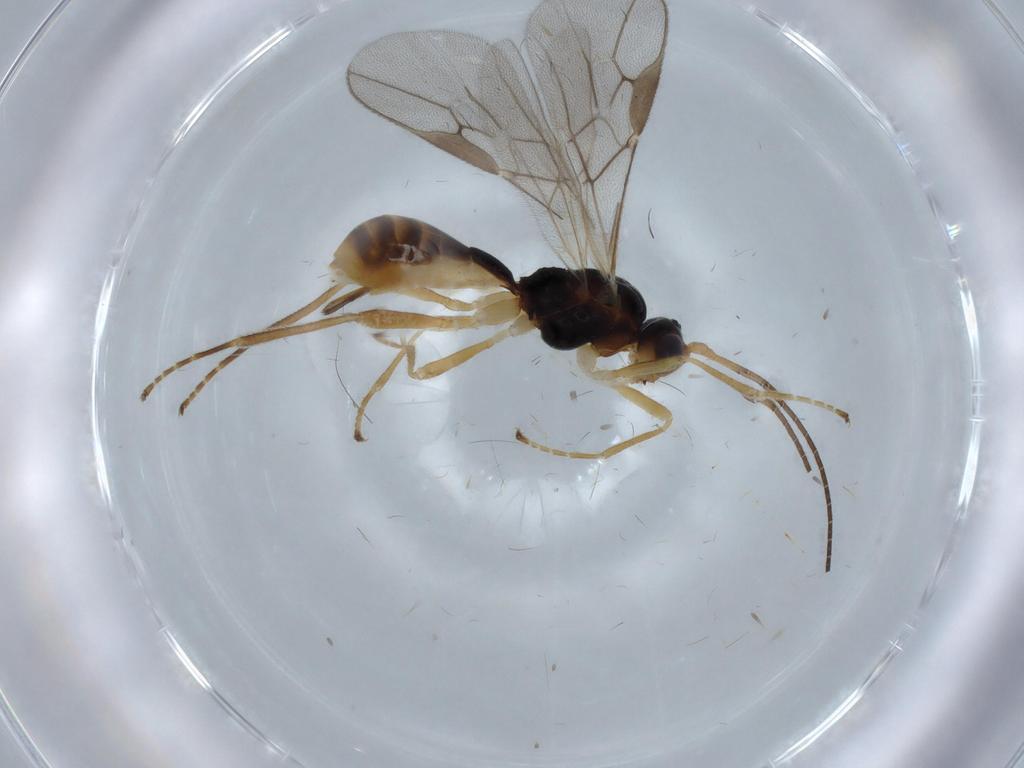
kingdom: Animalia
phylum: Arthropoda
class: Insecta
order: Hymenoptera
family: Braconidae
